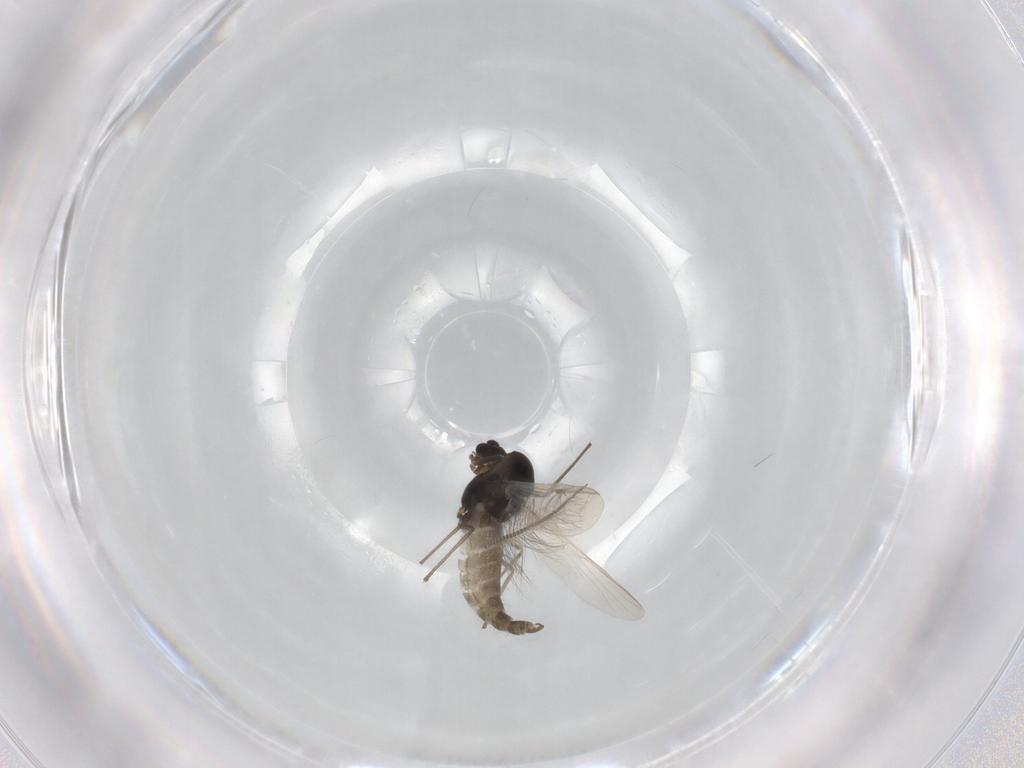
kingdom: Animalia
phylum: Arthropoda
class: Insecta
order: Diptera
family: Chironomidae
